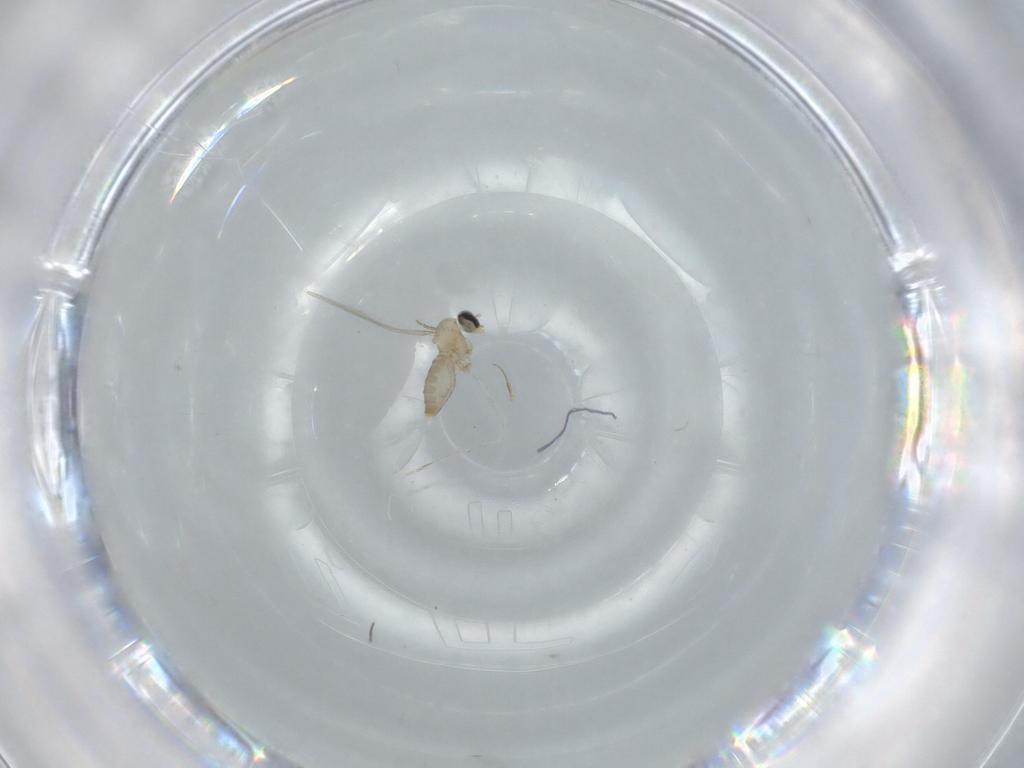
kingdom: Animalia
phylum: Arthropoda
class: Insecta
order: Diptera
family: Cecidomyiidae
